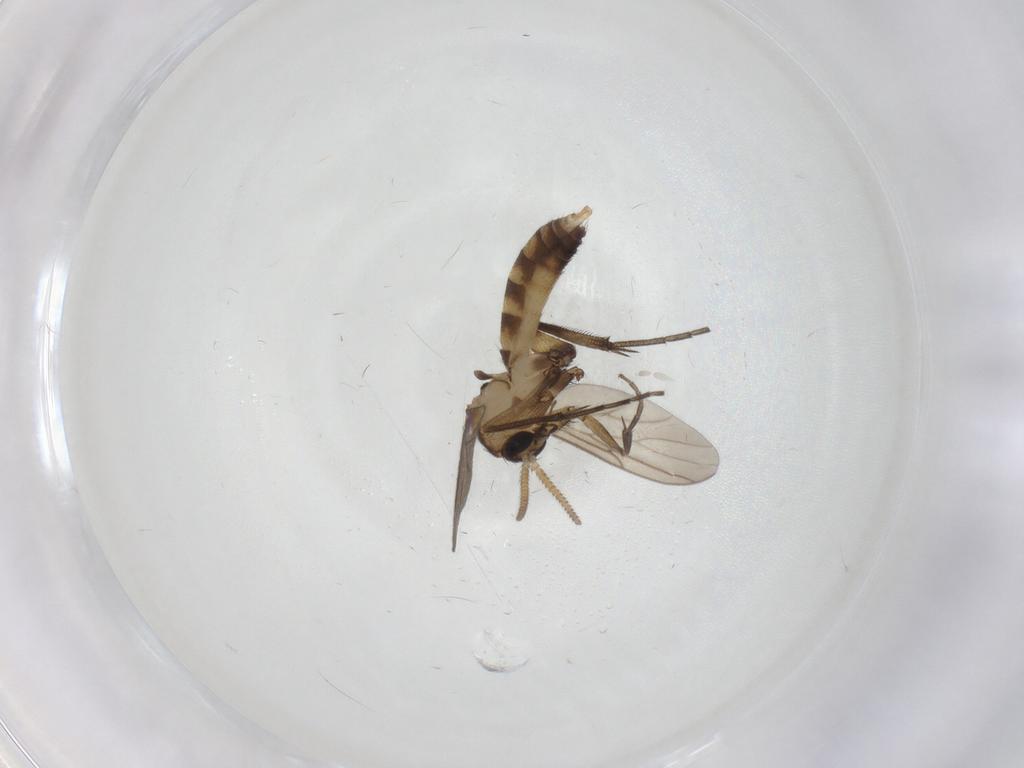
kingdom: Animalia
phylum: Arthropoda
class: Insecta
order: Diptera
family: Mycetophilidae
